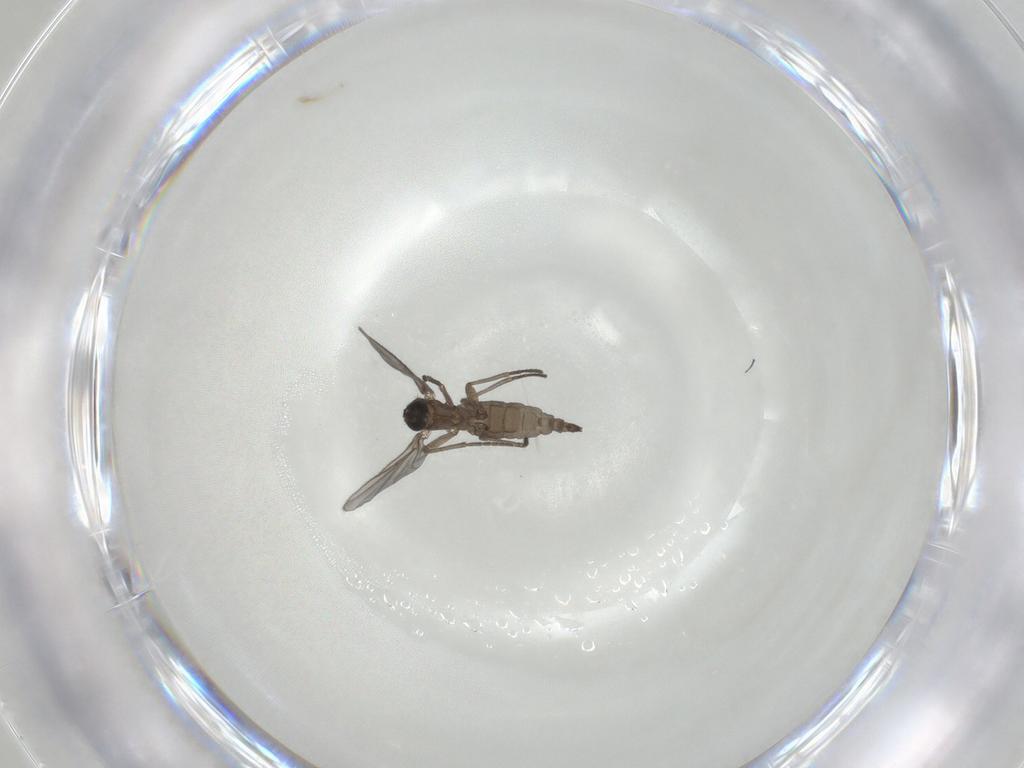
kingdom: Animalia
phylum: Arthropoda
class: Insecta
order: Diptera
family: Sciaridae
